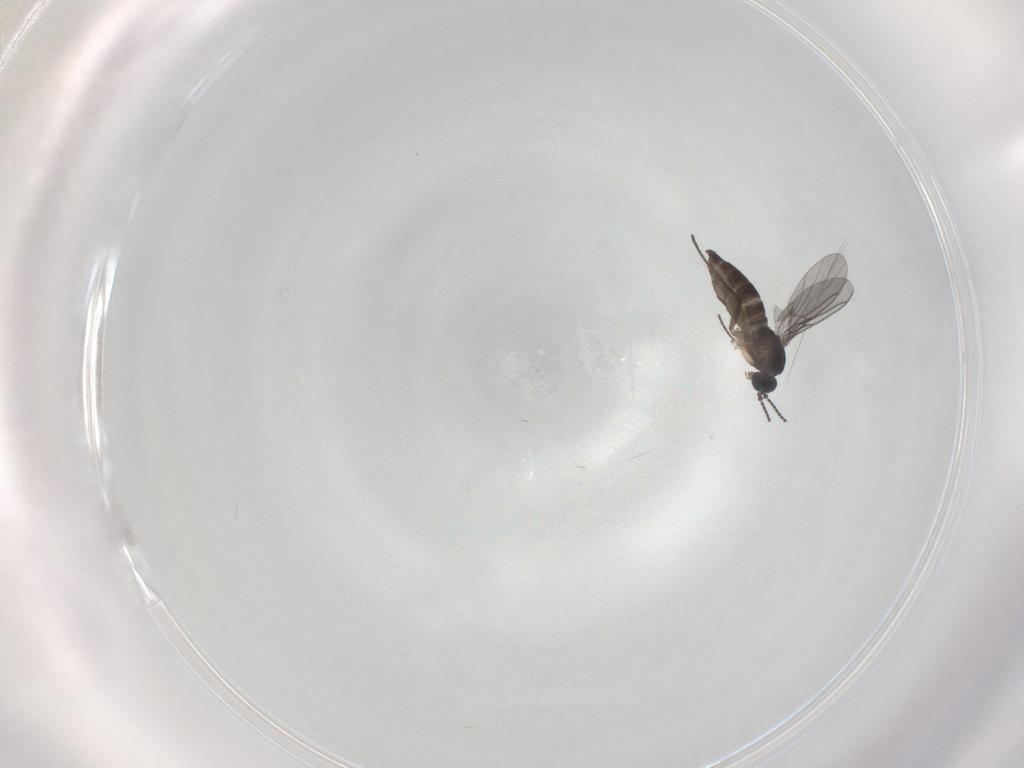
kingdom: Animalia
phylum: Arthropoda
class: Insecta
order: Diptera
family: Sciaridae
